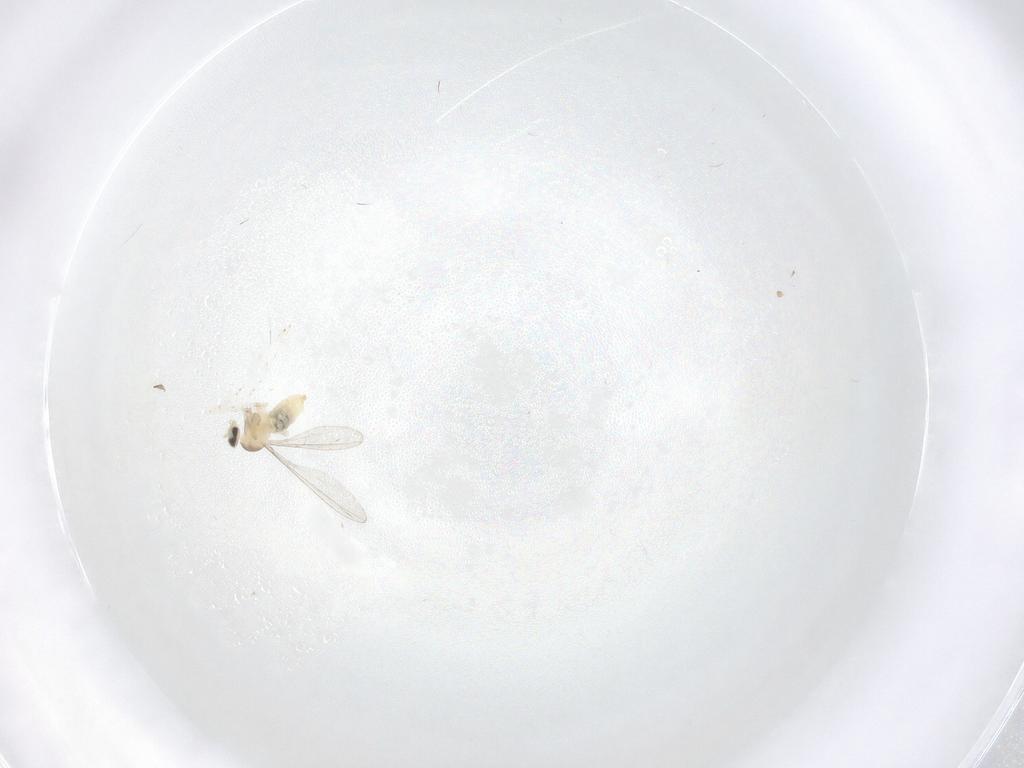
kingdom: Animalia
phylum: Arthropoda
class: Insecta
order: Diptera
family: Cecidomyiidae
